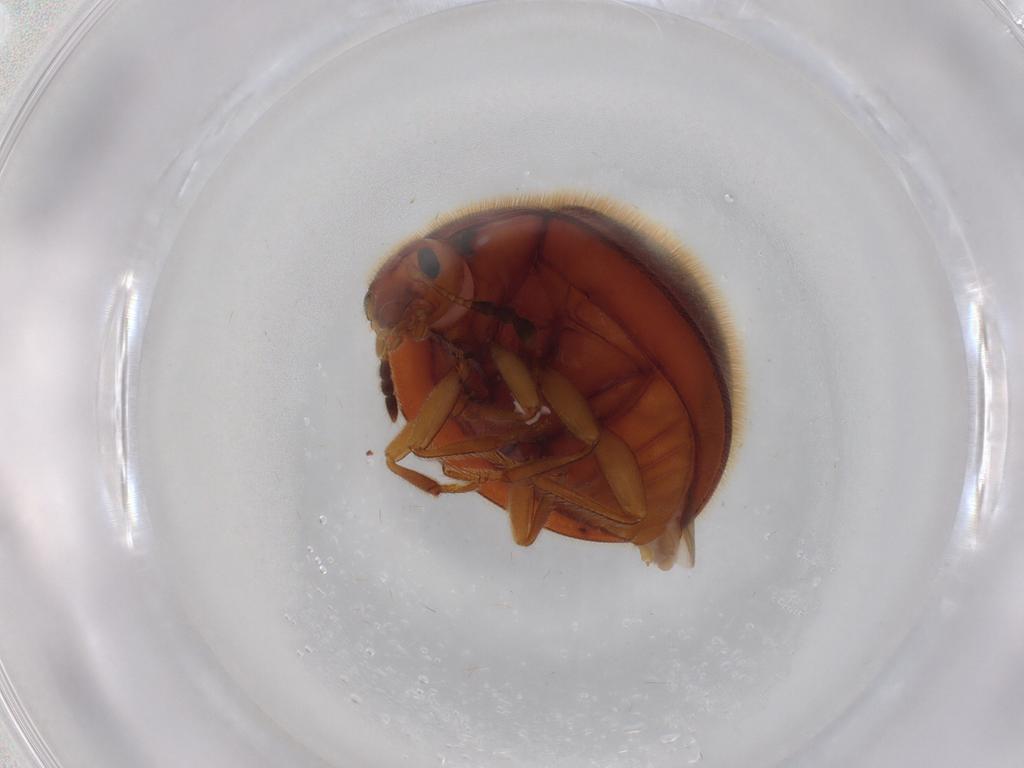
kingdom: Animalia
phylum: Arthropoda
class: Insecta
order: Coleoptera
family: Anamorphidae
